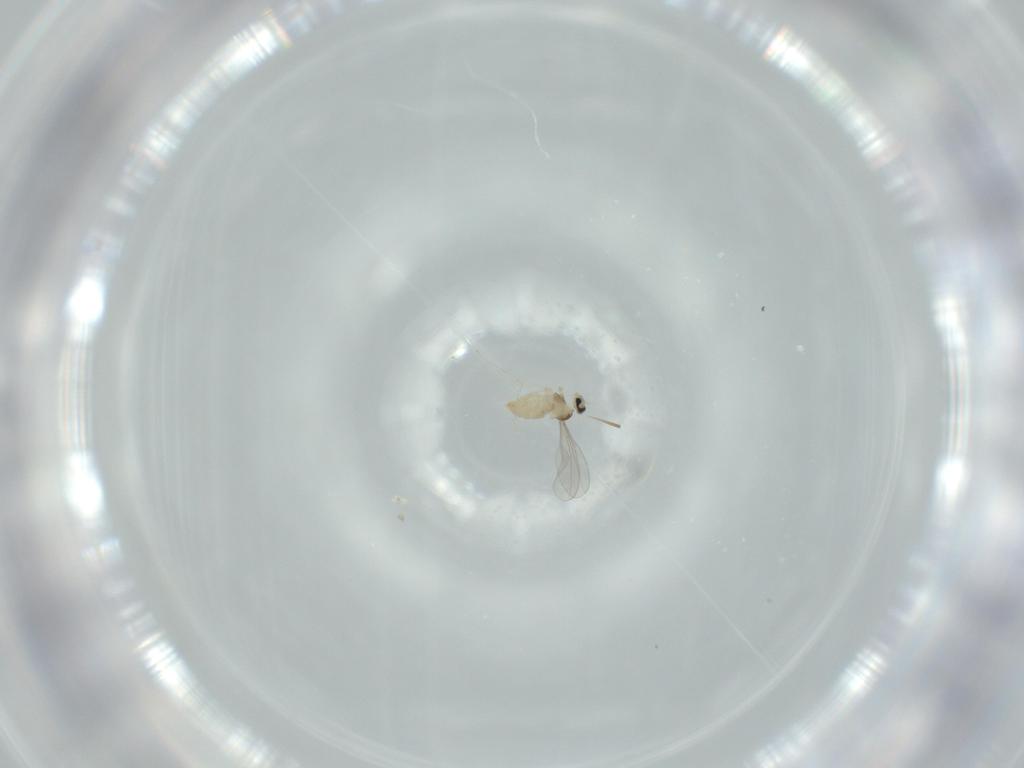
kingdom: Animalia
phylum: Arthropoda
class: Insecta
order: Diptera
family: Cecidomyiidae
